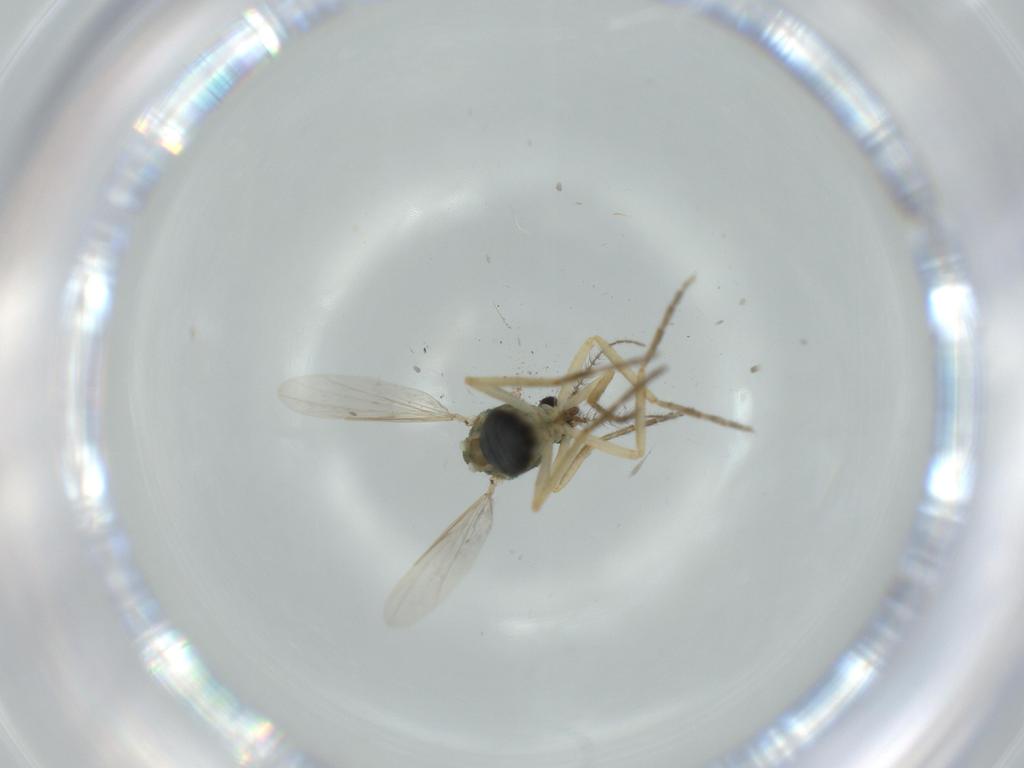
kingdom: Animalia
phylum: Arthropoda
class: Insecta
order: Diptera
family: Ceratopogonidae
